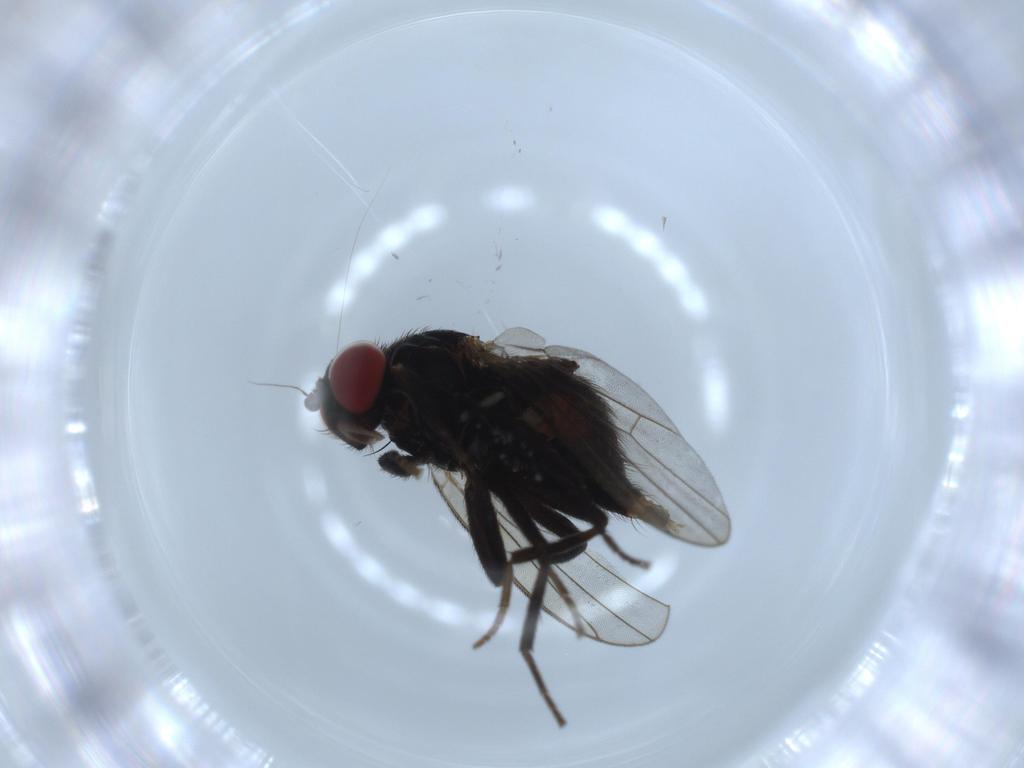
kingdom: Animalia
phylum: Arthropoda
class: Insecta
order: Diptera
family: Agromyzidae
